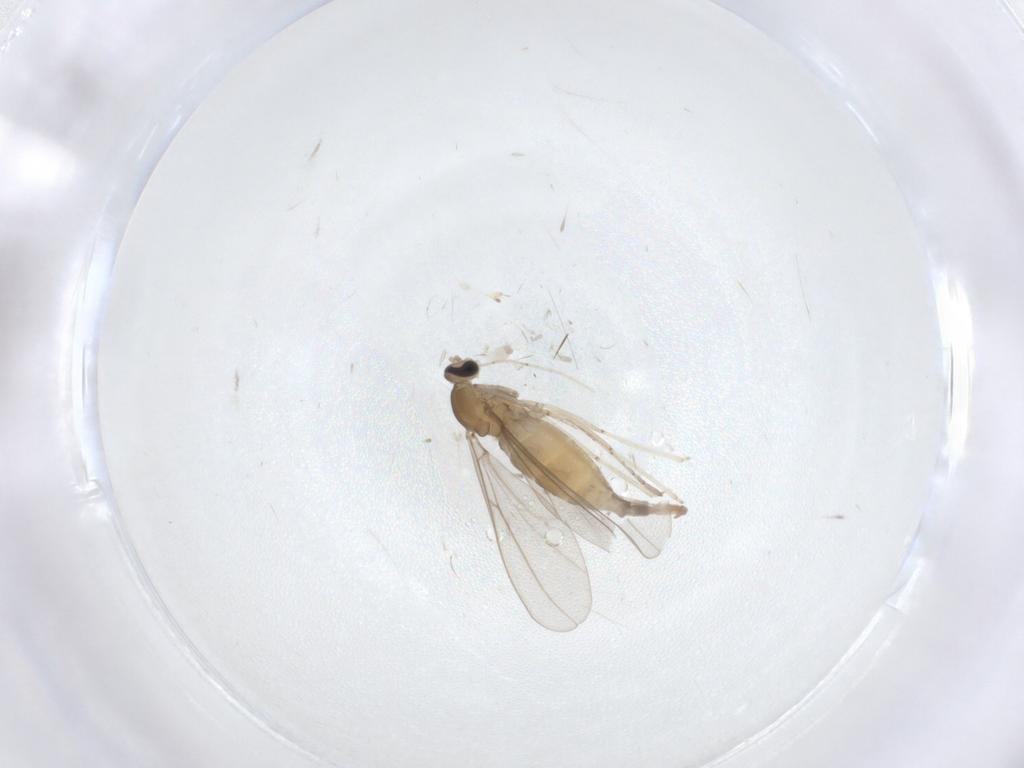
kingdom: Animalia
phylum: Arthropoda
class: Insecta
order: Diptera
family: Cecidomyiidae
